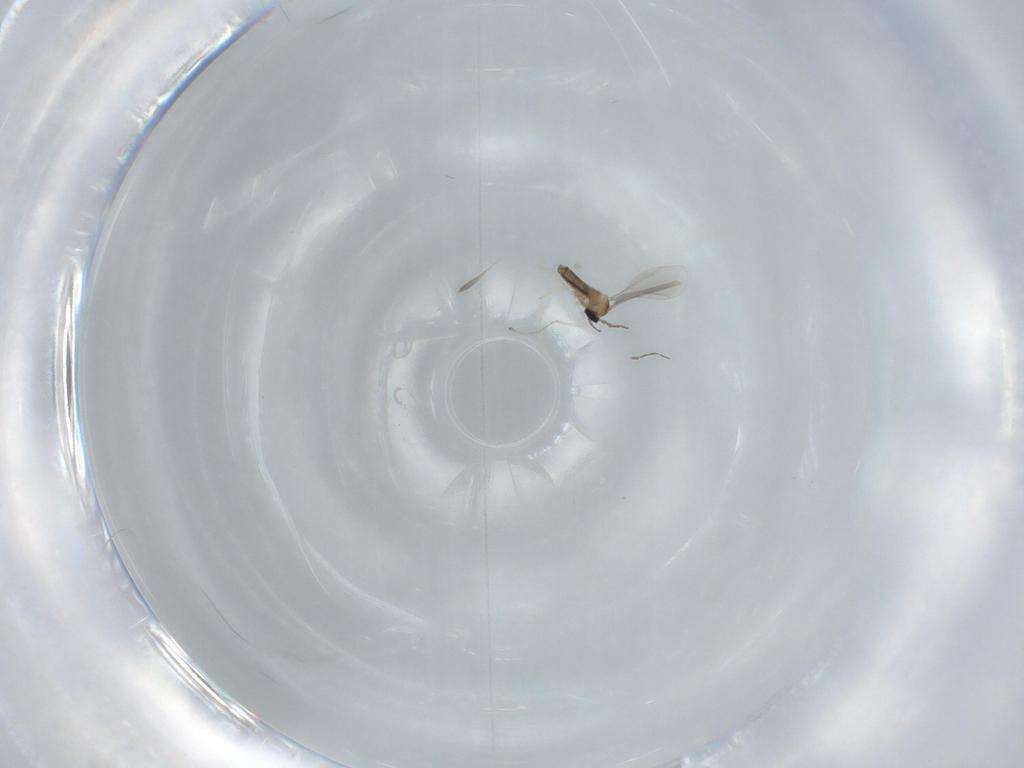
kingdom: Animalia
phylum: Arthropoda
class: Insecta
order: Diptera
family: Cecidomyiidae
